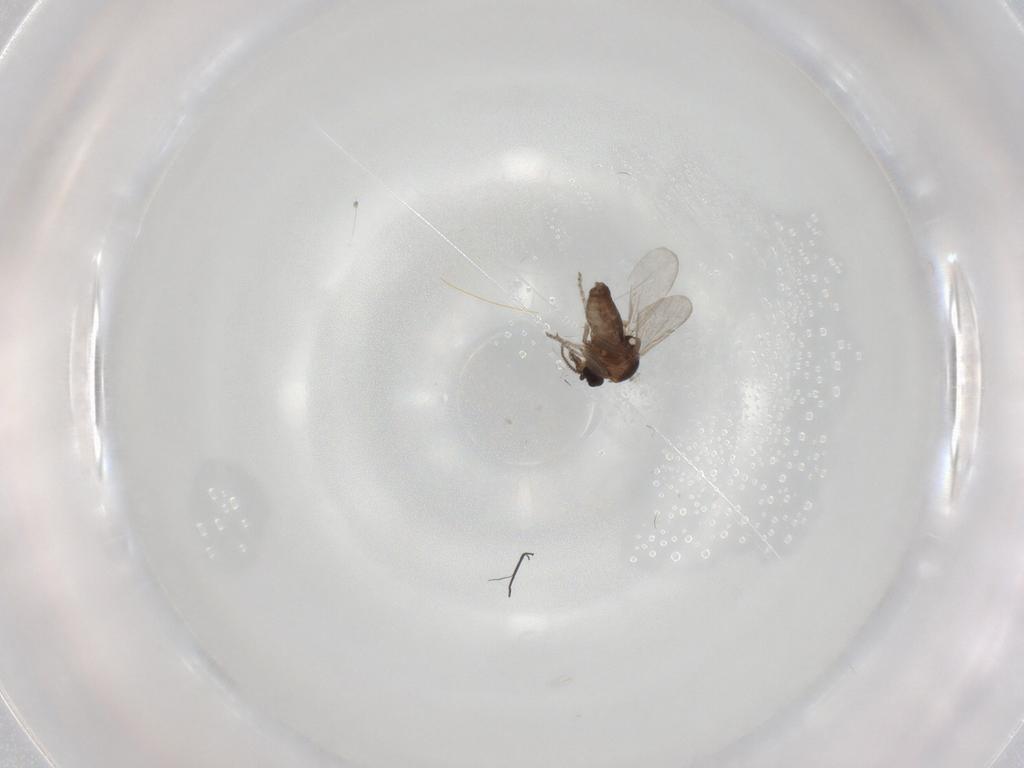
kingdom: Animalia
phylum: Arthropoda
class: Insecta
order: Diptera
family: Ceratopogonidae
